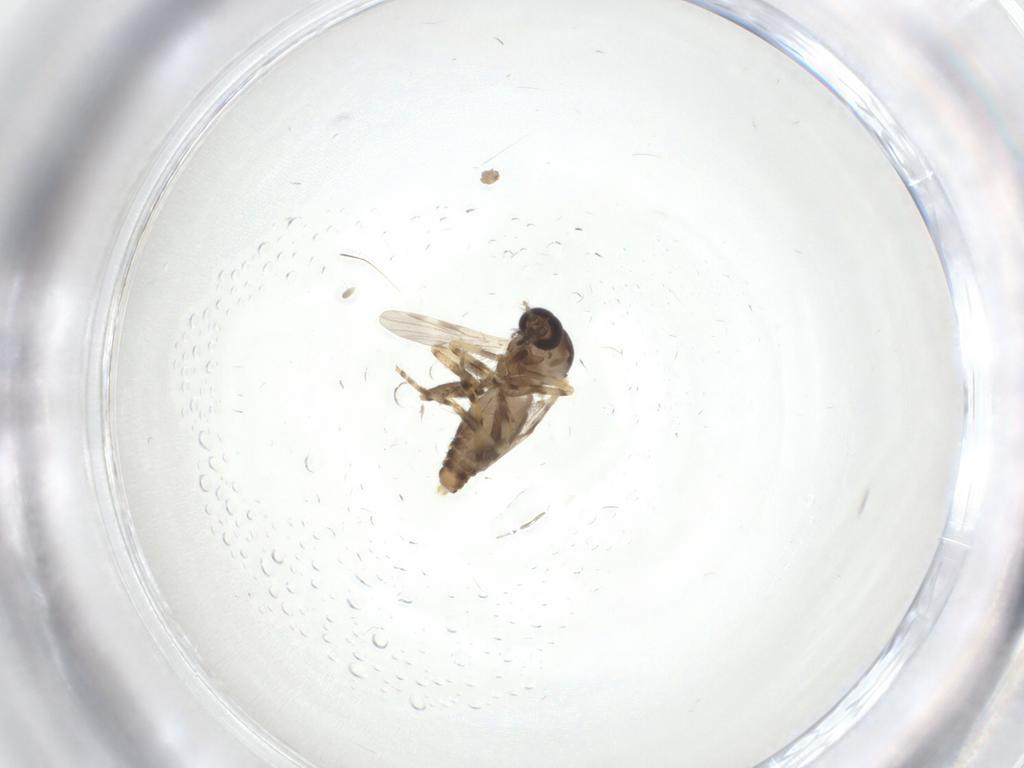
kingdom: Animalia
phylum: Arthropoda
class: Insecta
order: Diptera
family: Ceratopogonidae
